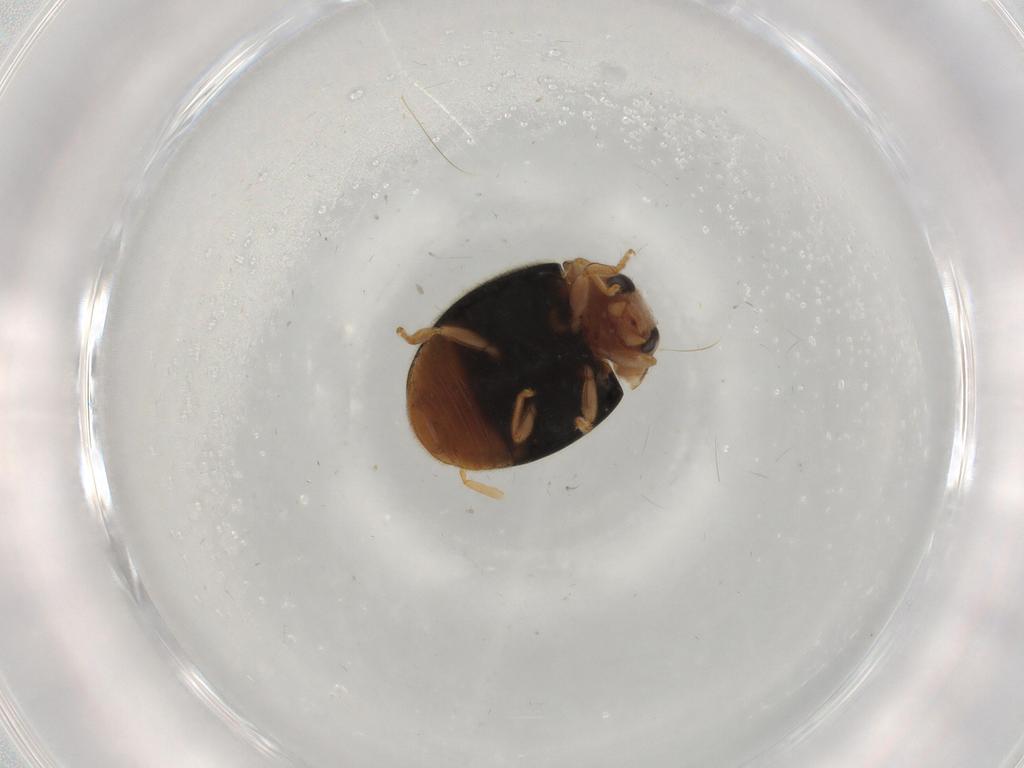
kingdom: Animalia
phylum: Arthropoda
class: Insecta
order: Coleoptera
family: Coccinellidae
